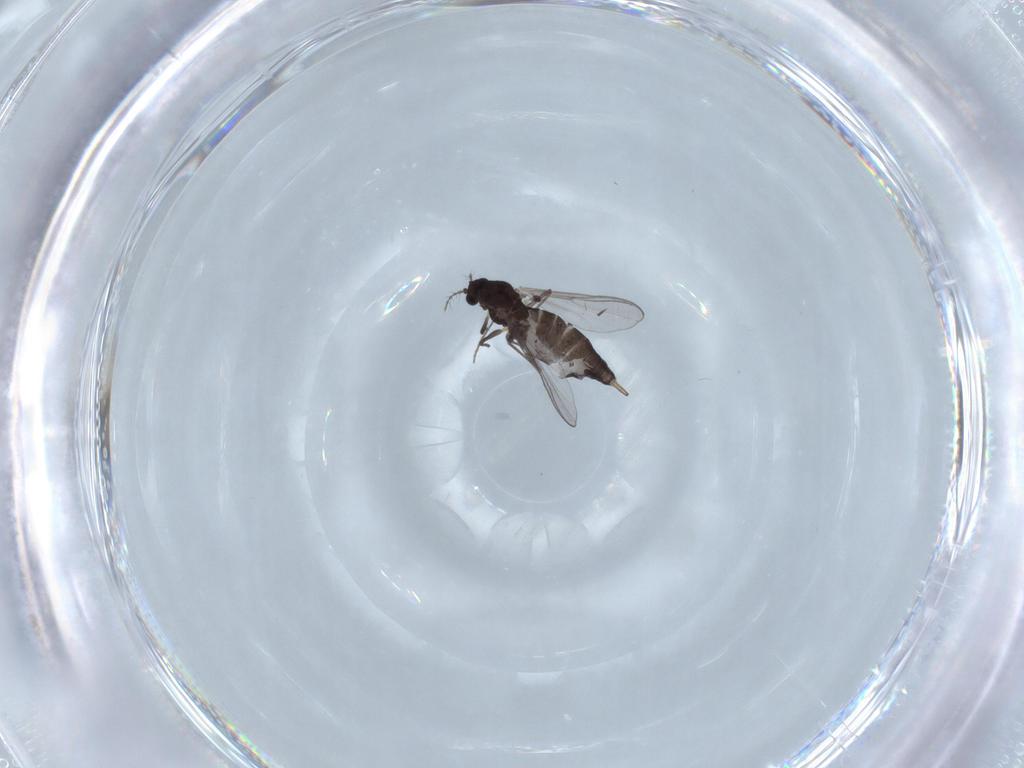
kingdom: Animalia
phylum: Arthropoda
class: Insecta
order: Diptera
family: Chironomidae
